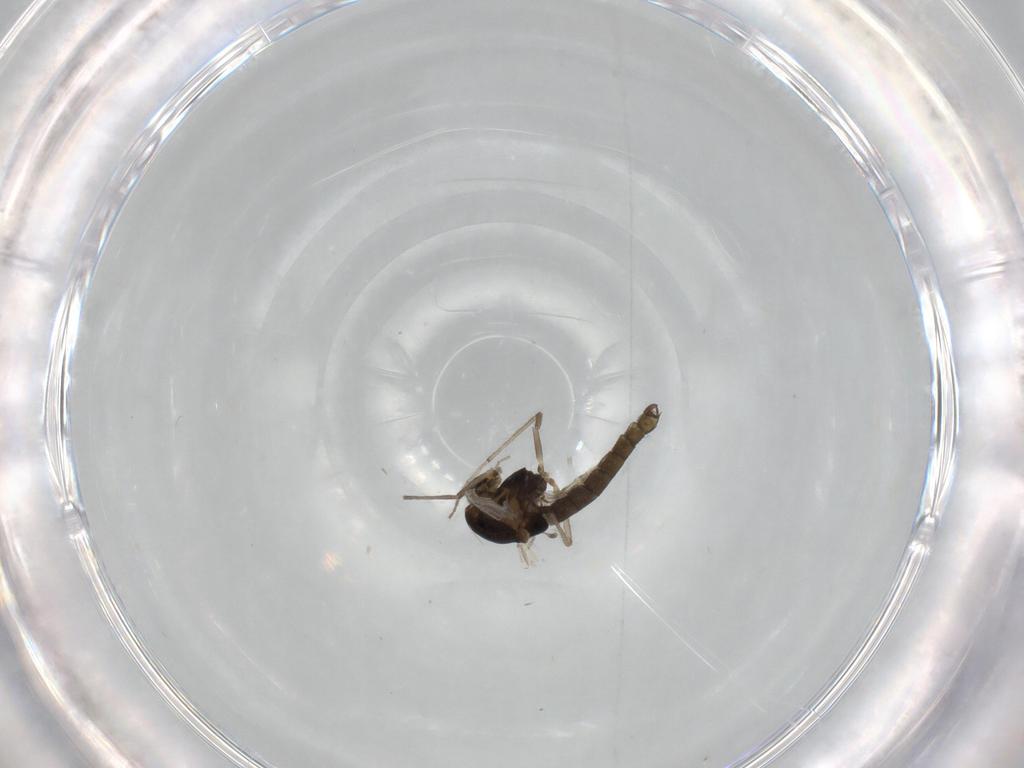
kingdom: Animalia
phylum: Arthropoda
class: Insecta
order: Diptera
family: Chironomidae
